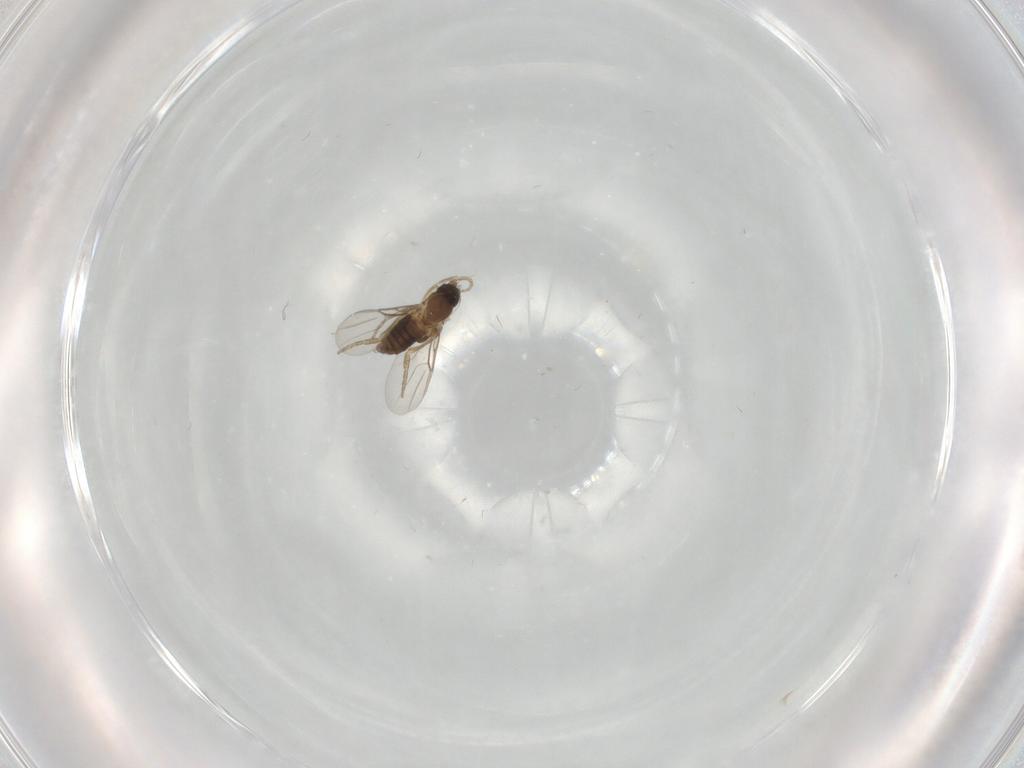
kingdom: Animalia
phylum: Arthropoda
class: Insecta
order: Diptera
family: Phoridae
